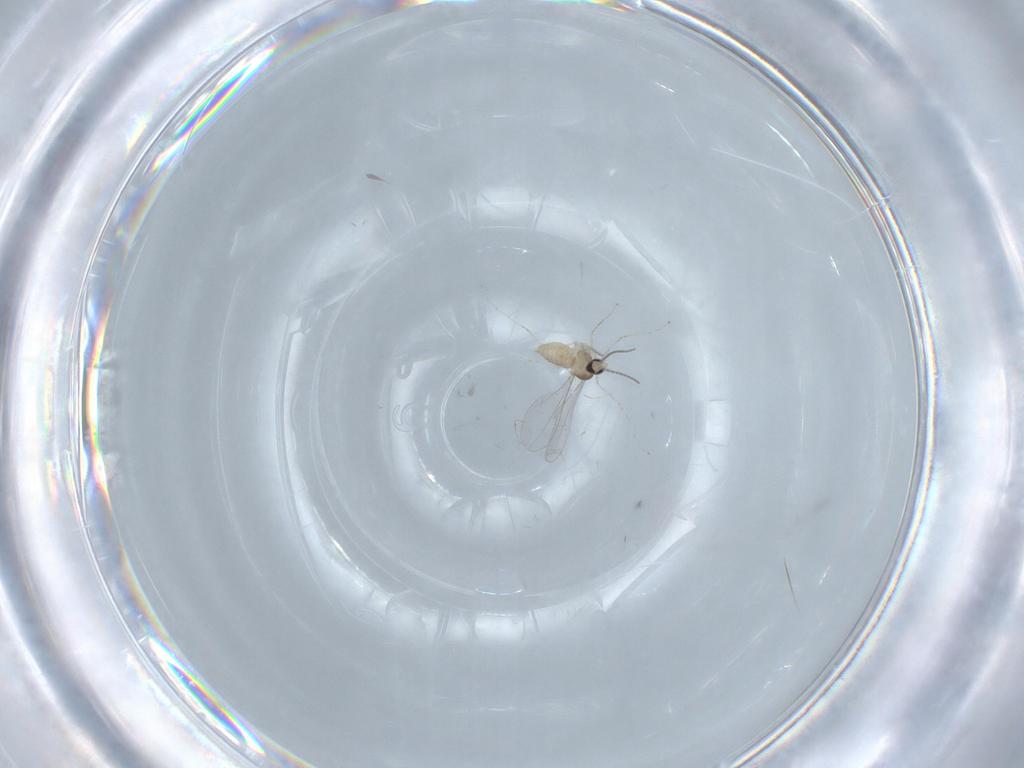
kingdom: Animalia
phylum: Arthropoda
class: Insecta
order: Diptera
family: Cecidomyiidae
